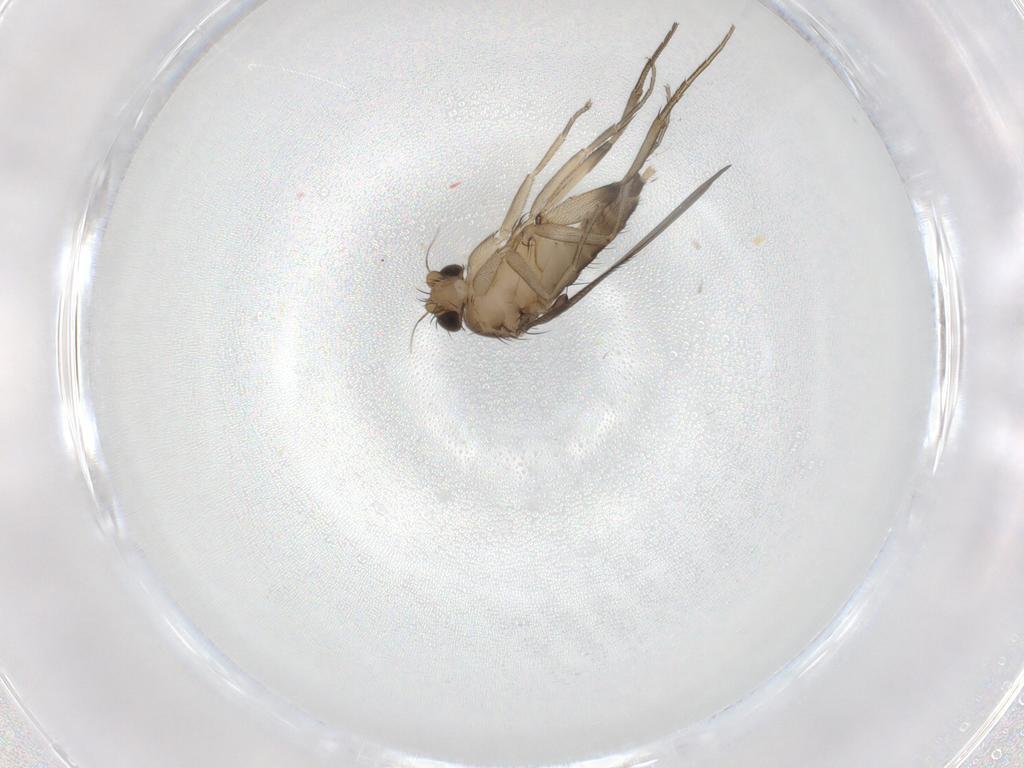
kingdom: Animalia
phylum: Arthropoda
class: Insecta
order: Diptera
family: Phoridae
